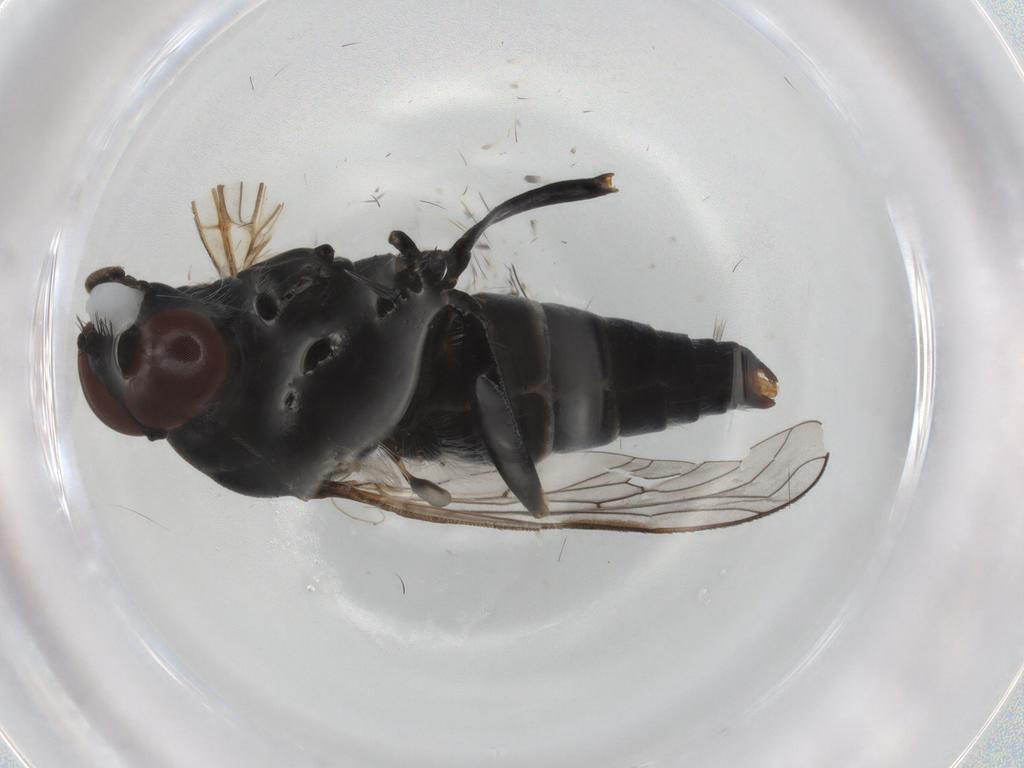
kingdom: Animalia
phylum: Arthropoda
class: Insecta
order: Diptera
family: Therevidae
